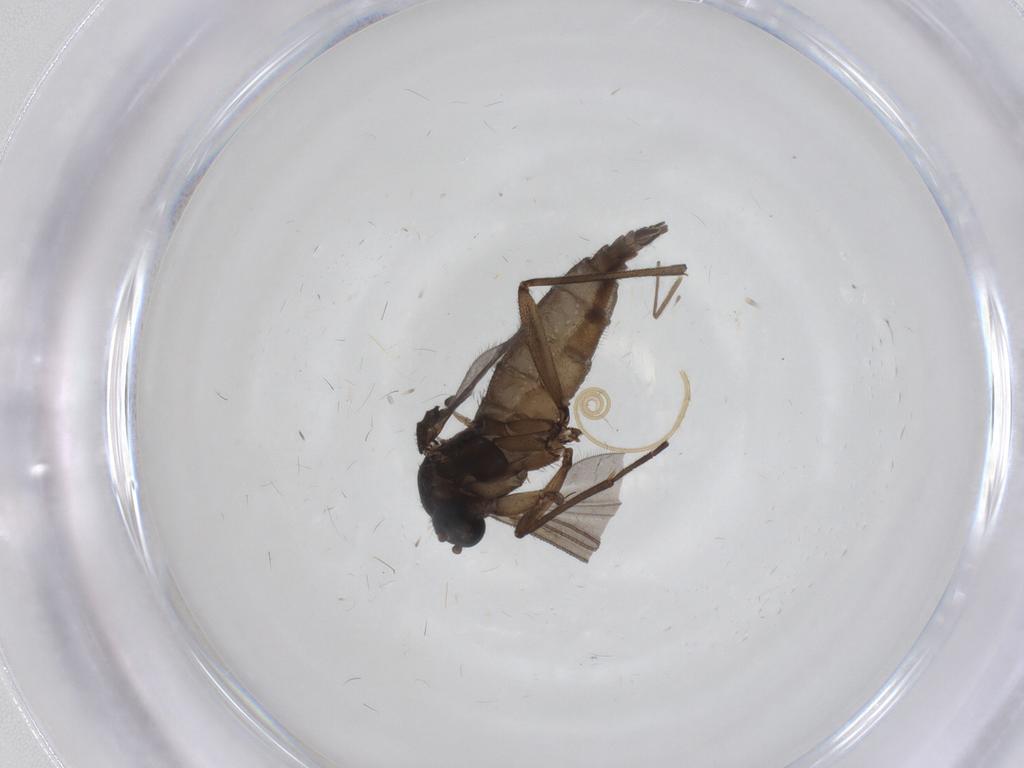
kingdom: Animalia
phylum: Arthropoda
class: Insecta
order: Diptera
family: Sciaridae
